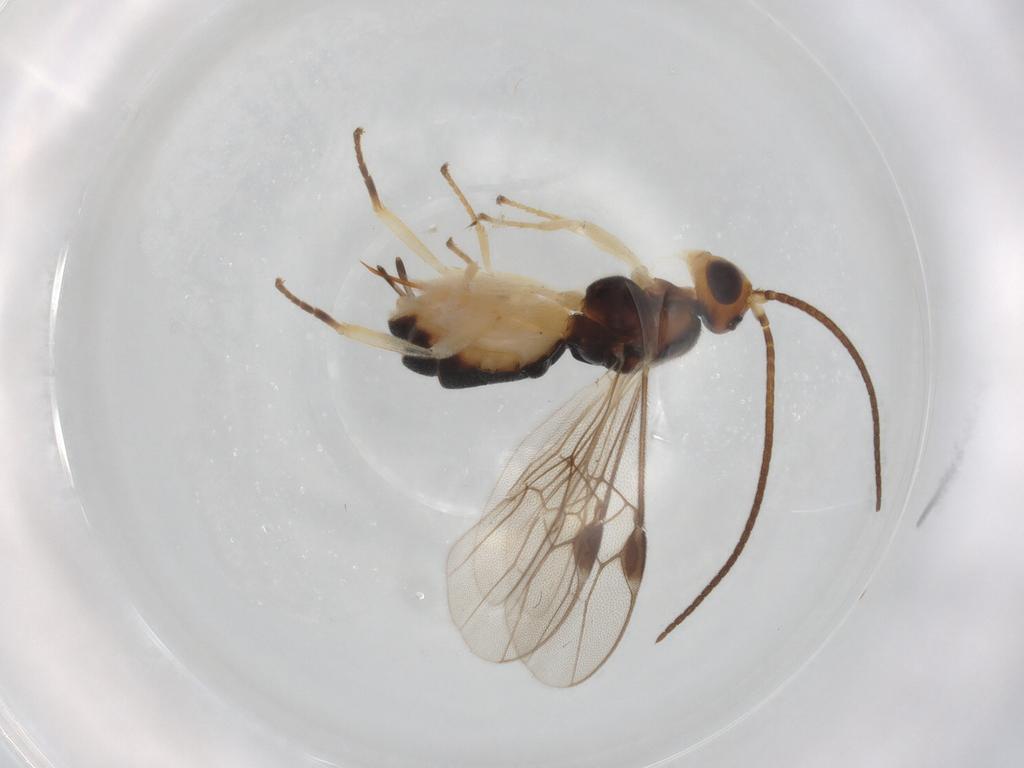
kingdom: Animalia
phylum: Arthropoda
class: Insecta
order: Hymenoptera
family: Braconidae
